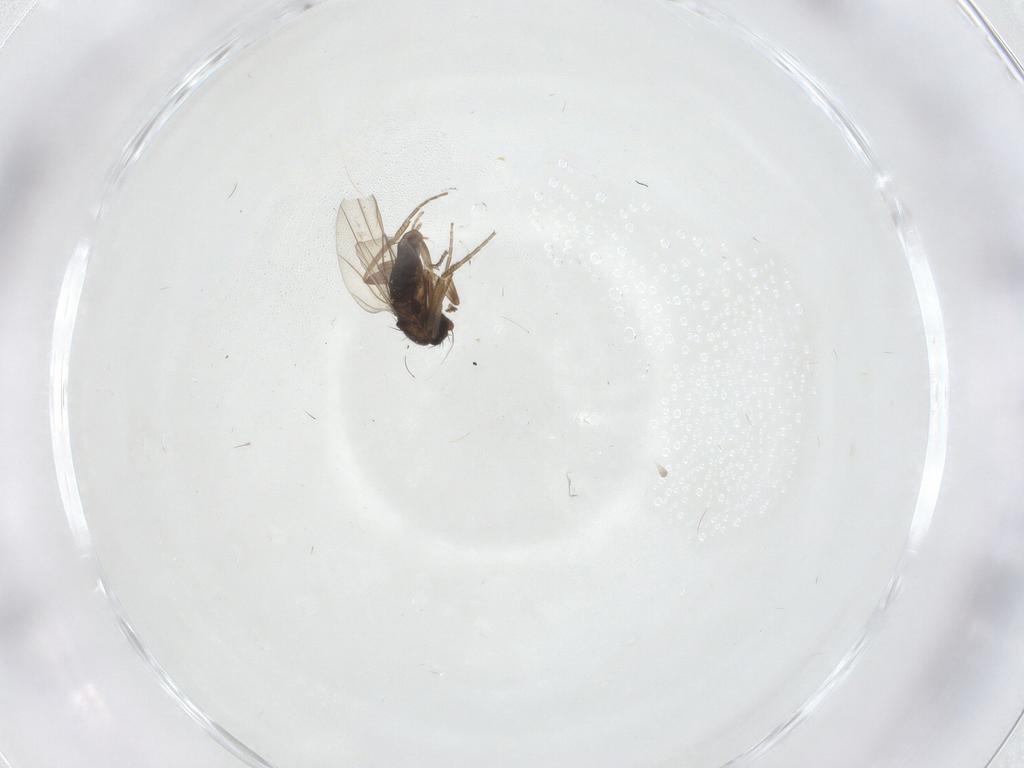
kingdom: Animalia
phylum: Arthropoda
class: Insecta
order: Diptera
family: Phoridae
